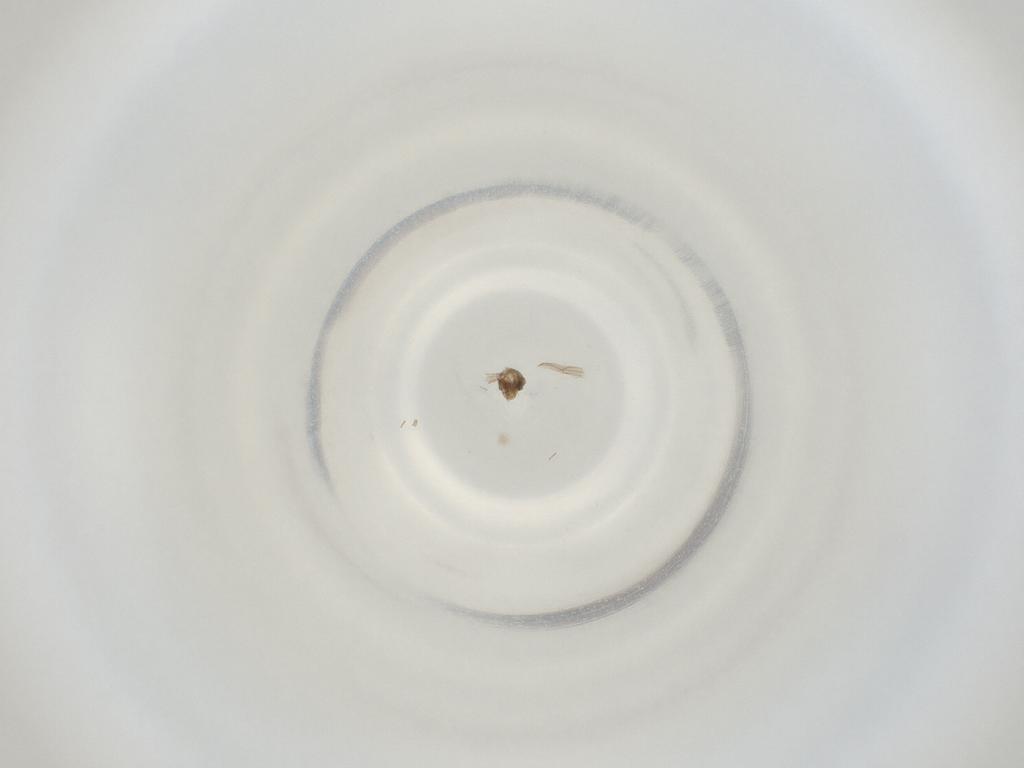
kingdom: Animalia
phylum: Arthropoda
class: Insecta
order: Diptera
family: Cecidomyiidae
